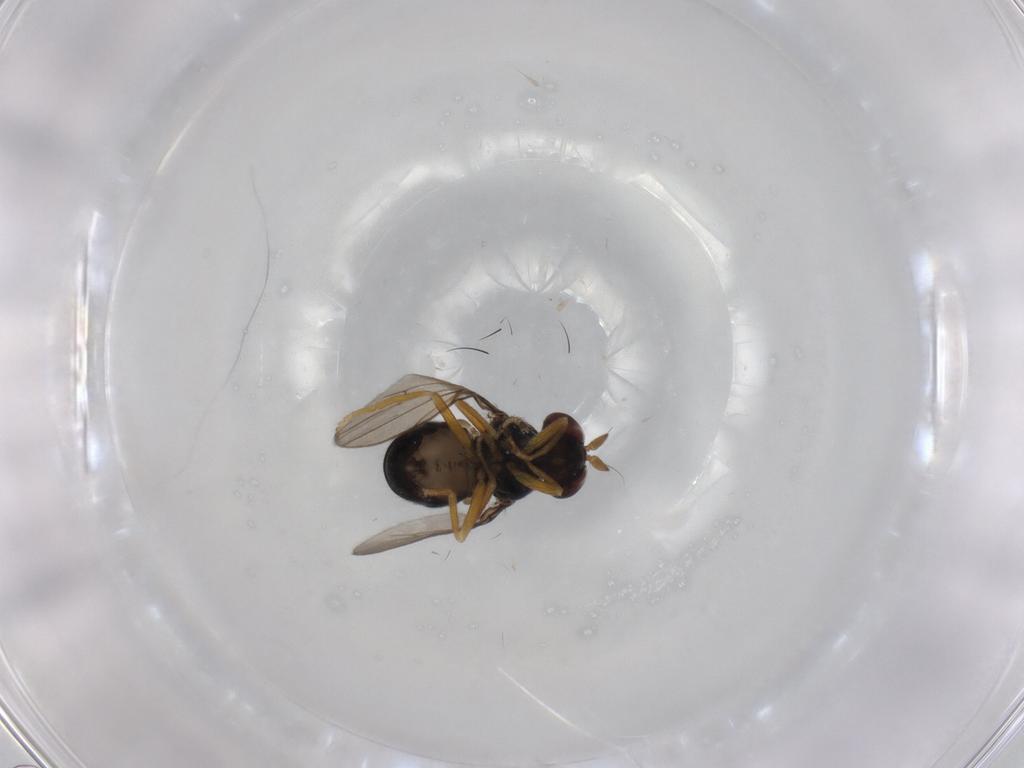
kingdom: Animalia
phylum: Arthropoda
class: Insecta
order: Diptera
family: Ephydridae
